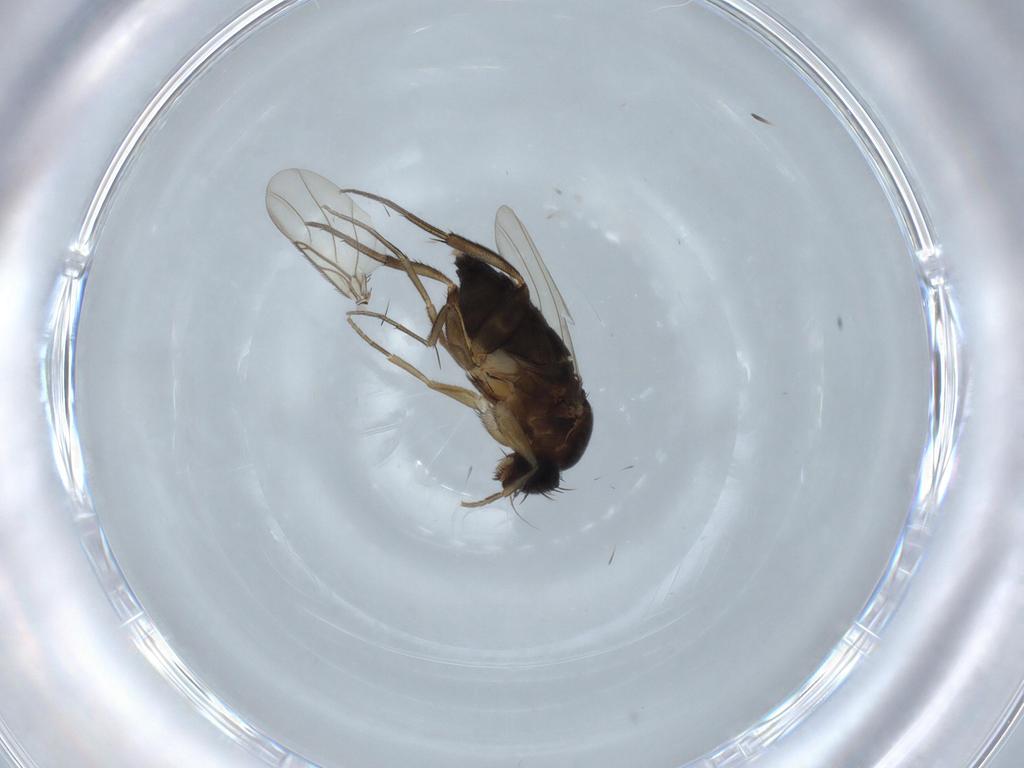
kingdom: Animalia
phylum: Arthropoda
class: Insecta
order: Diptera
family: Phoridae
